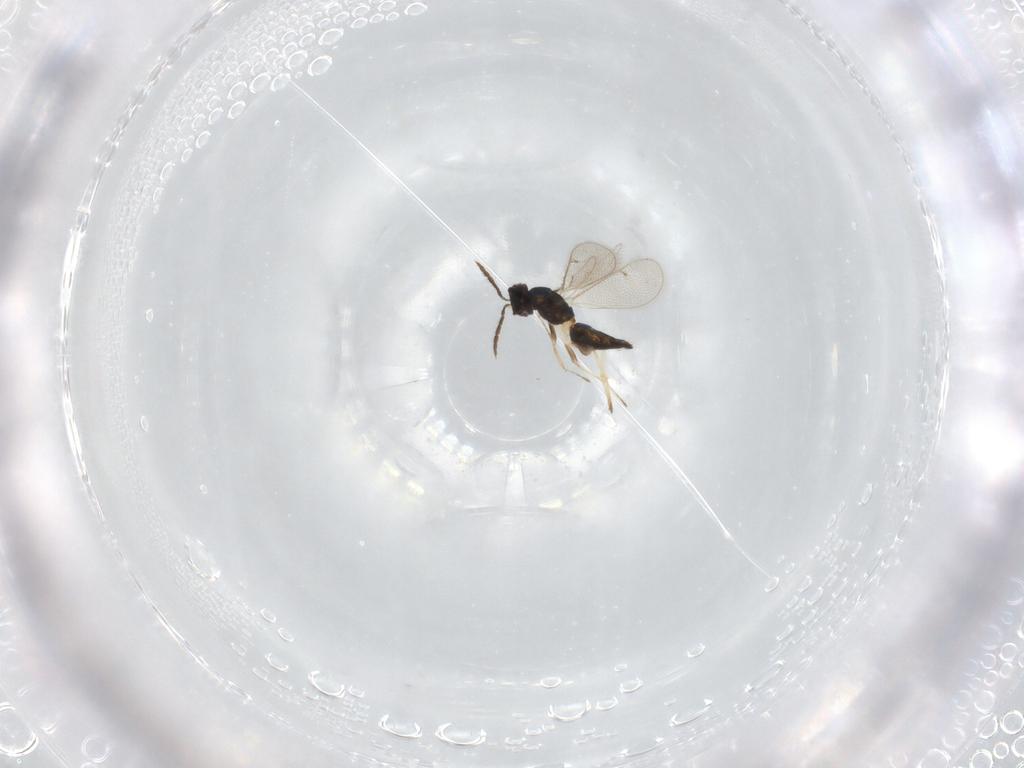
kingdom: Animalia
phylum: Arthropoda
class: Insecta
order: Hymenoptera
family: Eulophidae
